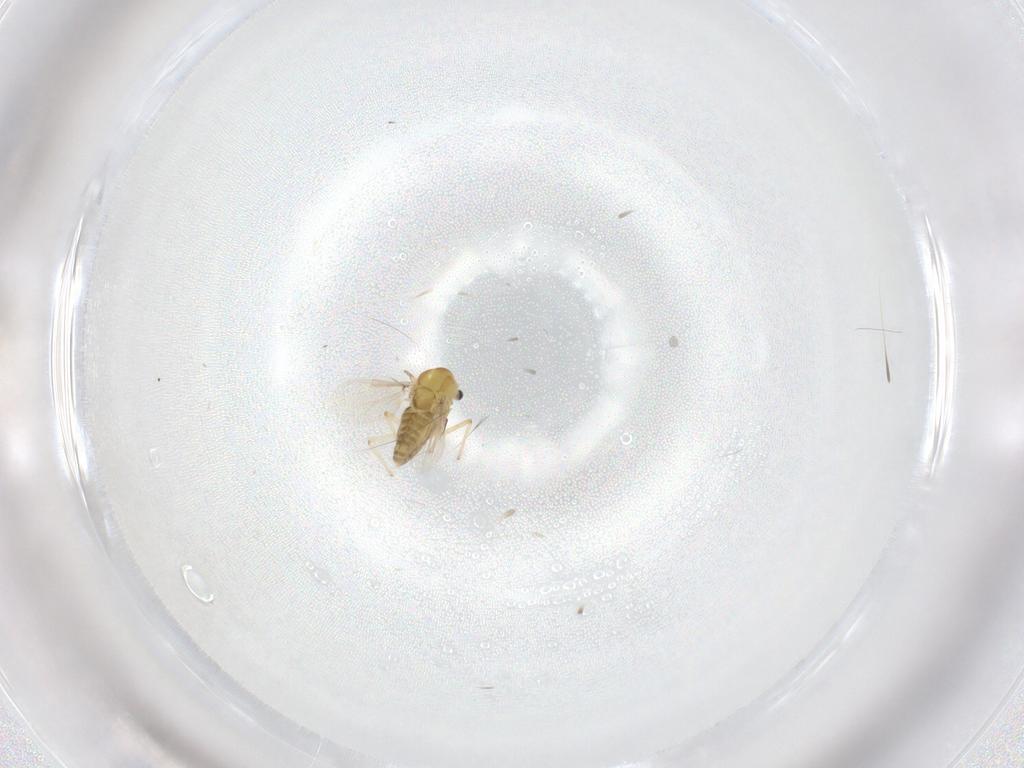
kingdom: Animalia
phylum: Arthropoda
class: Insecta
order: Diptera
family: Chironomidae
